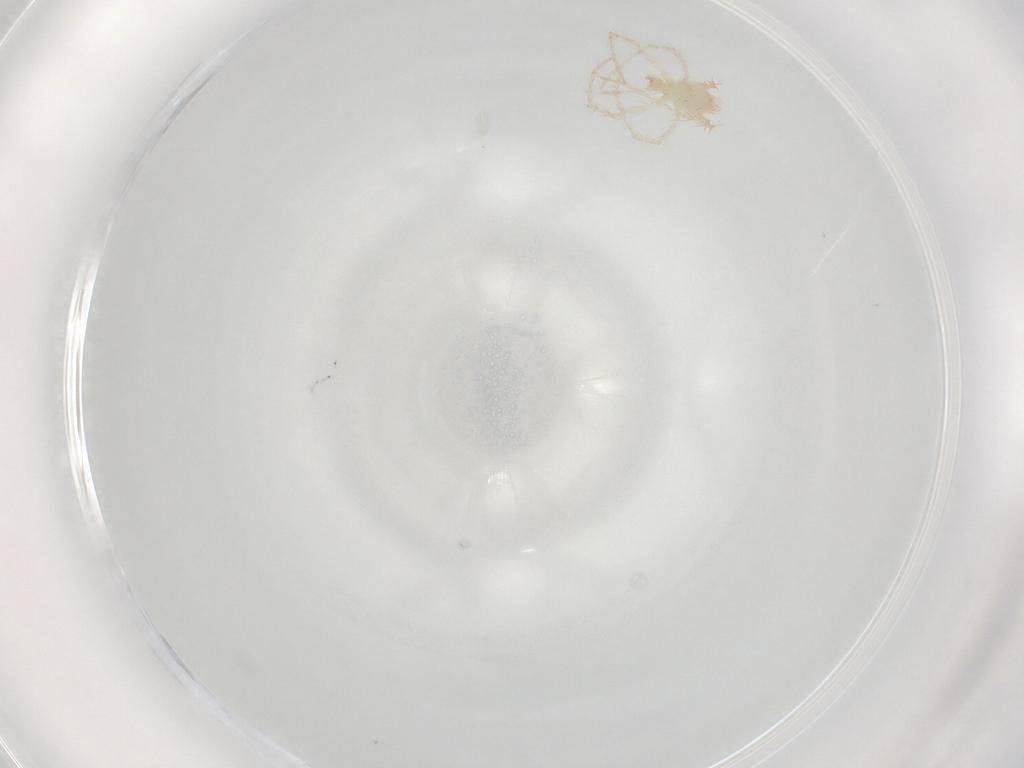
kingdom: Animalia
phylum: Arthropoda
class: Arachnida
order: Trombidiformes
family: Erythraeidae
